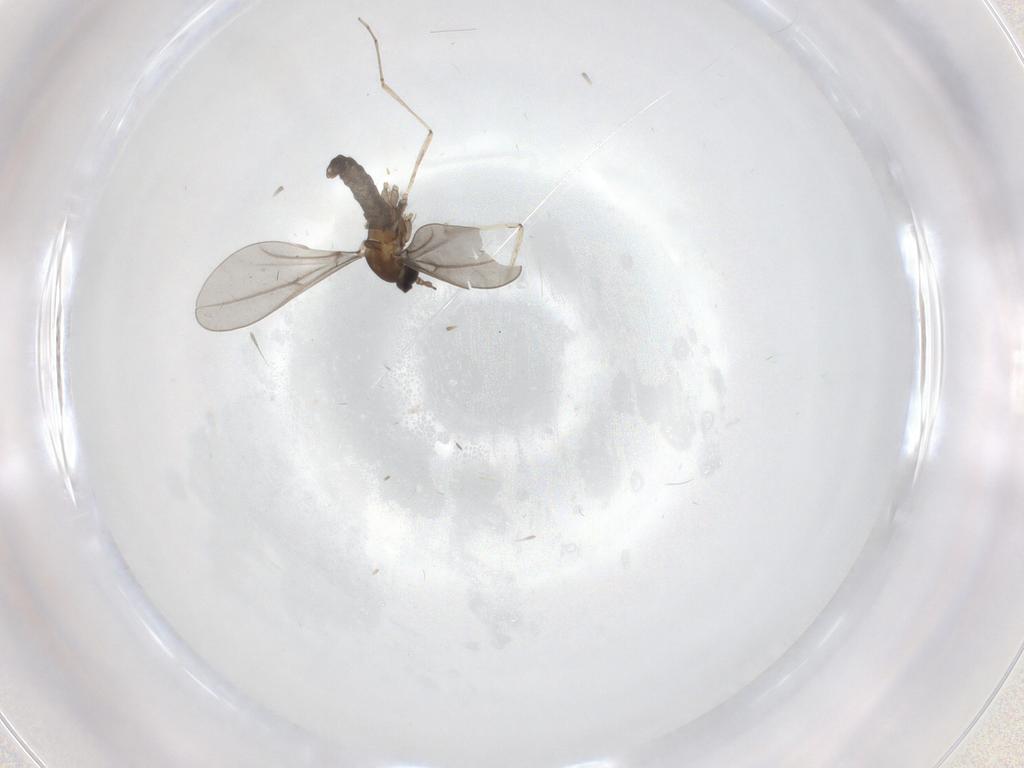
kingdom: Animalia
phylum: Arthropoda
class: Insecta
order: Diptera
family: Cecidomyiidae
